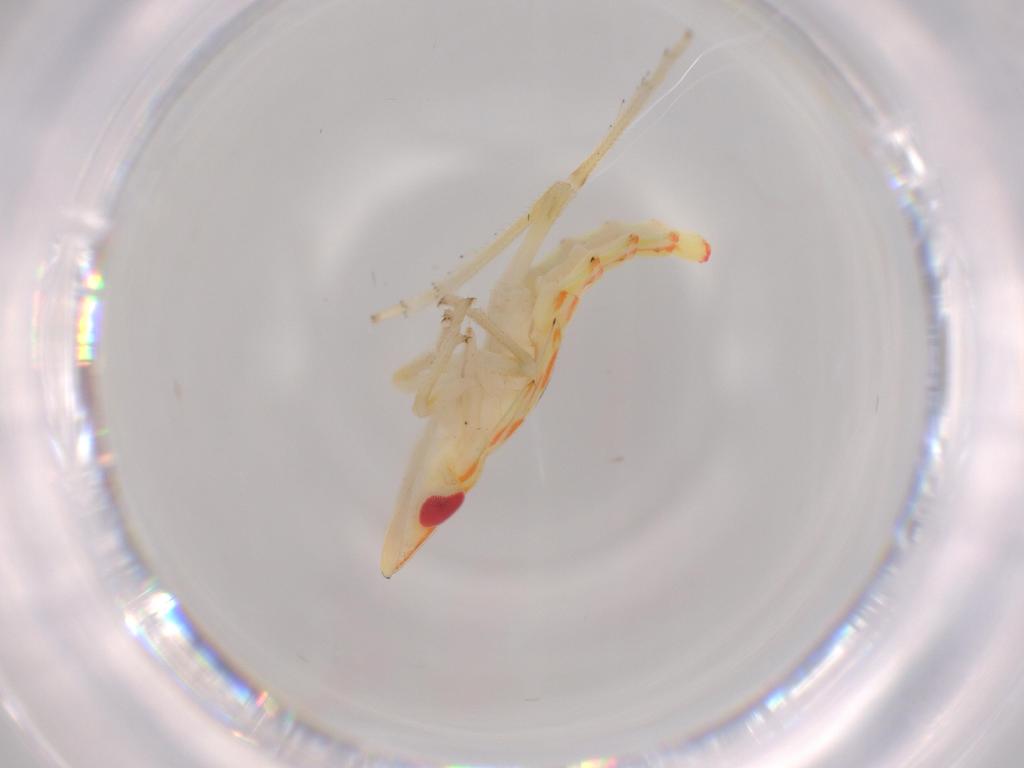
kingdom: Animalia
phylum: Arthropoda
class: Insecta
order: Hemiptera
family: Tropiduchidae
